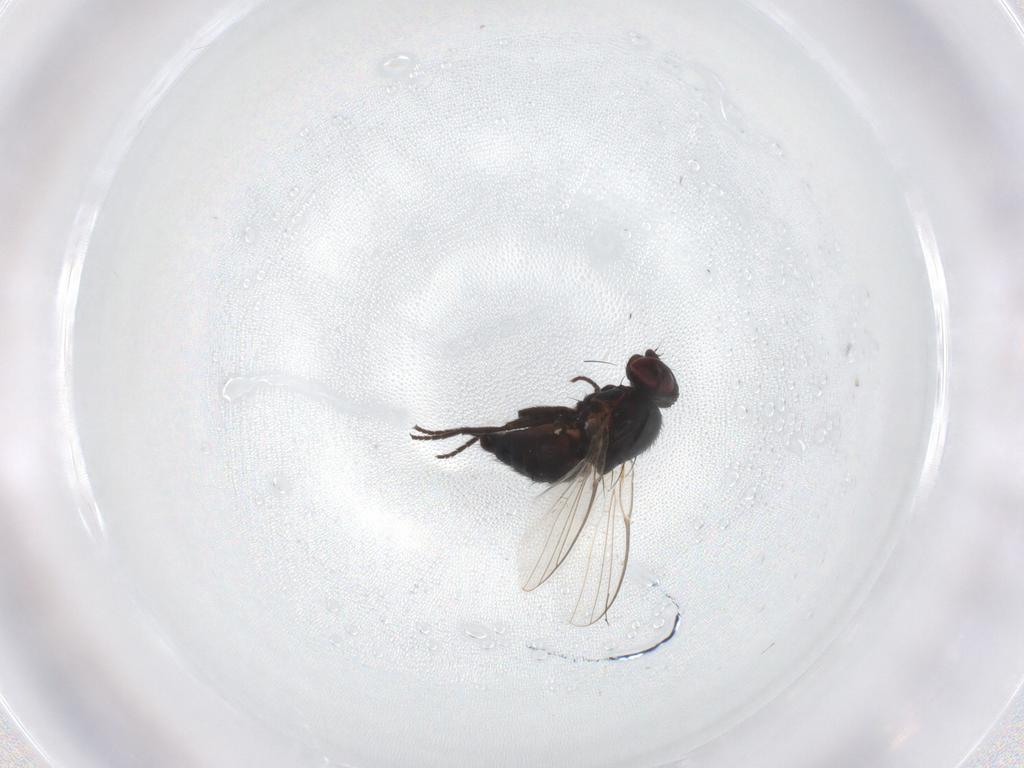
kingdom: Animalia
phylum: Arthropoda
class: Insecta
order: Diptera
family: Agromyzidae
